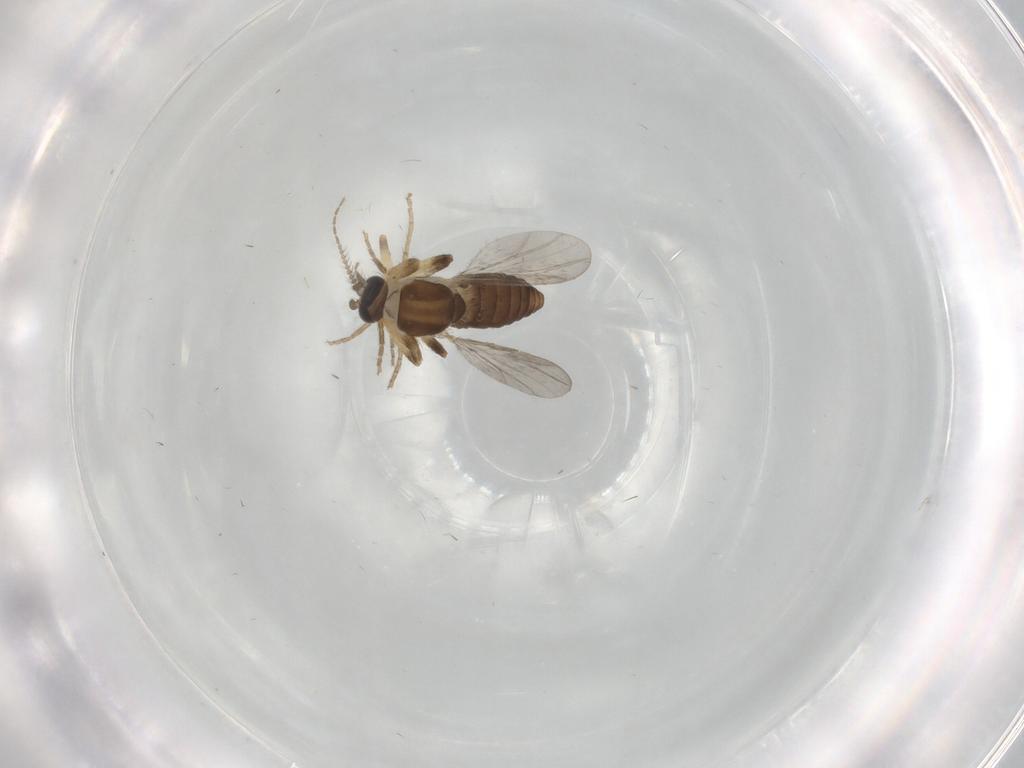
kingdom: Animalia
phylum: Arthropoda
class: Insecta
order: Diptera
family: Ceratopogonidae
